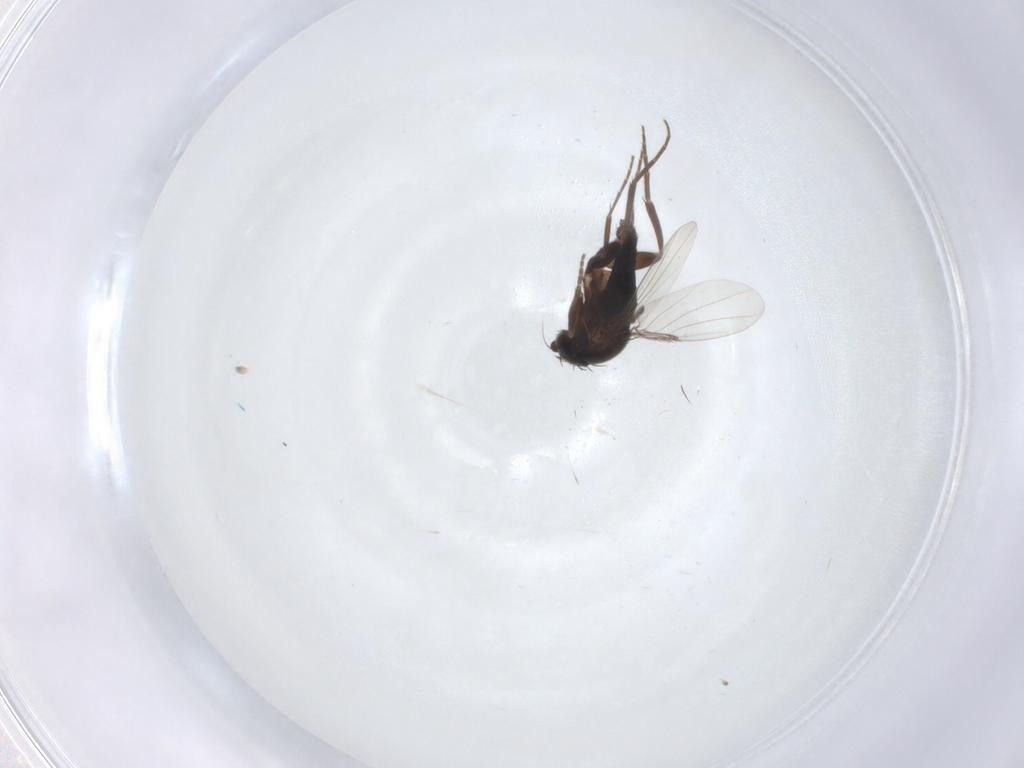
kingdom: Animalia
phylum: Arthropoda
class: Insecta
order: Diptera
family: Phoridae
